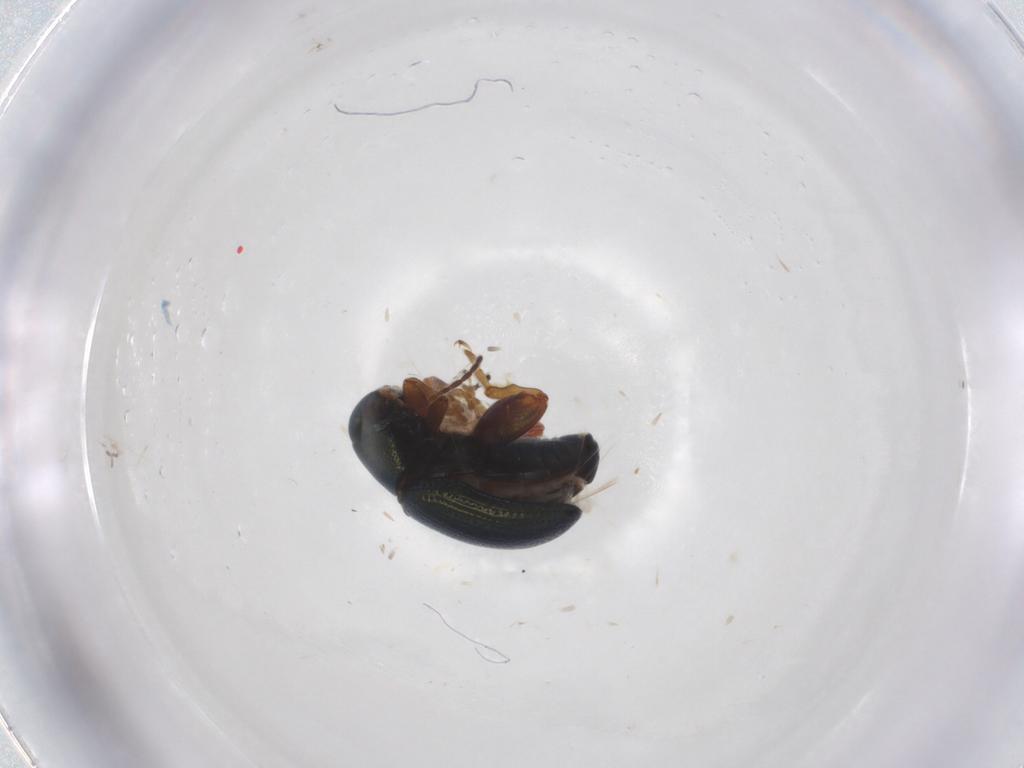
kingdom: Animalia
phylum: Arthropoda
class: Insecta
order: Coleoptera
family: Chrysomelidae
